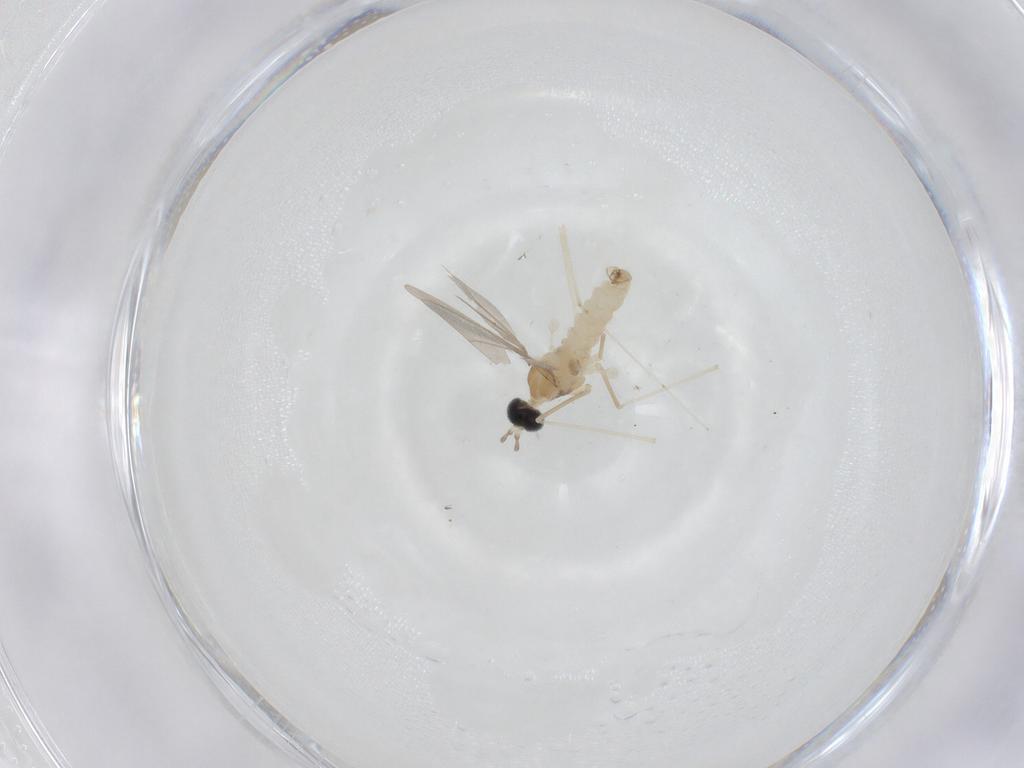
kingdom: Animalia
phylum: Arthropoda
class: Insecta
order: Diptera
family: Cecidomyiidae
